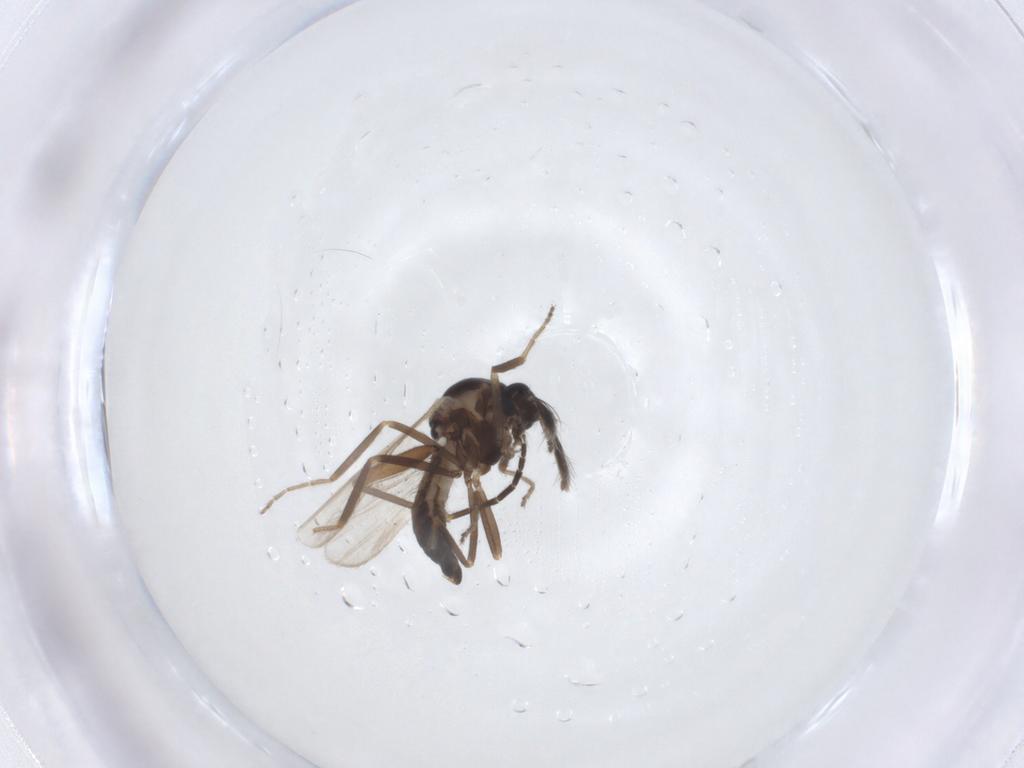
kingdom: Animalia
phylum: Arthropoda
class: Insecta
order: Diptera
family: Ceratopogonidae
